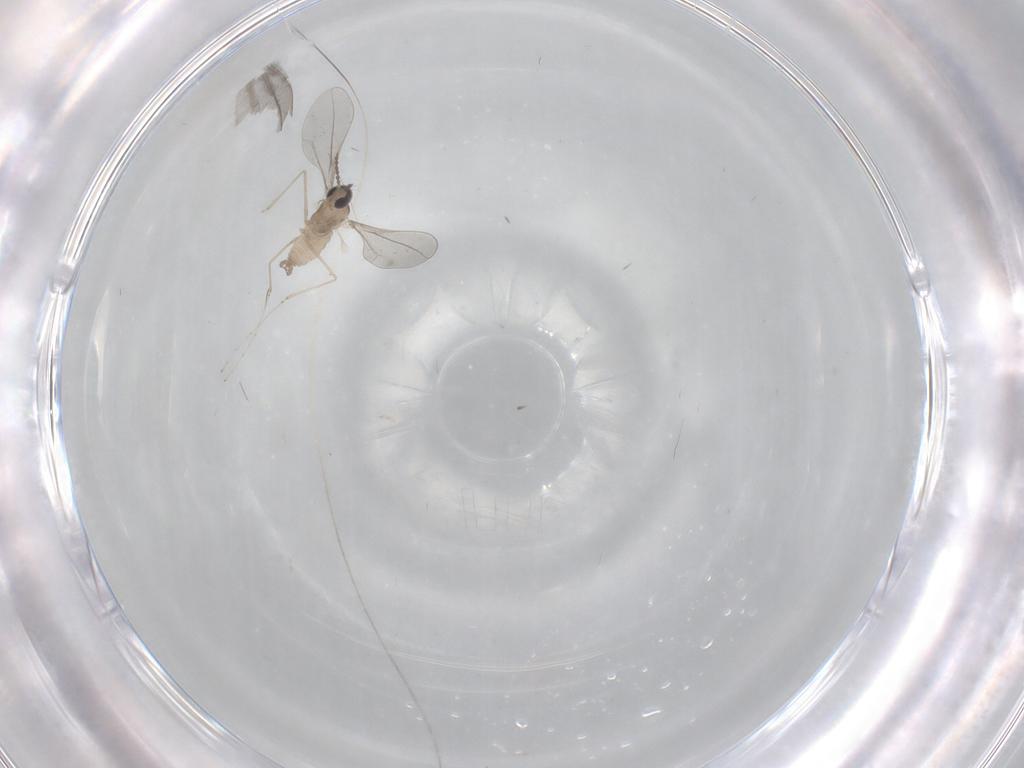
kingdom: Animalia
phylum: Arthropoda
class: Insecta
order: Diptera
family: Cecidomyiidae
